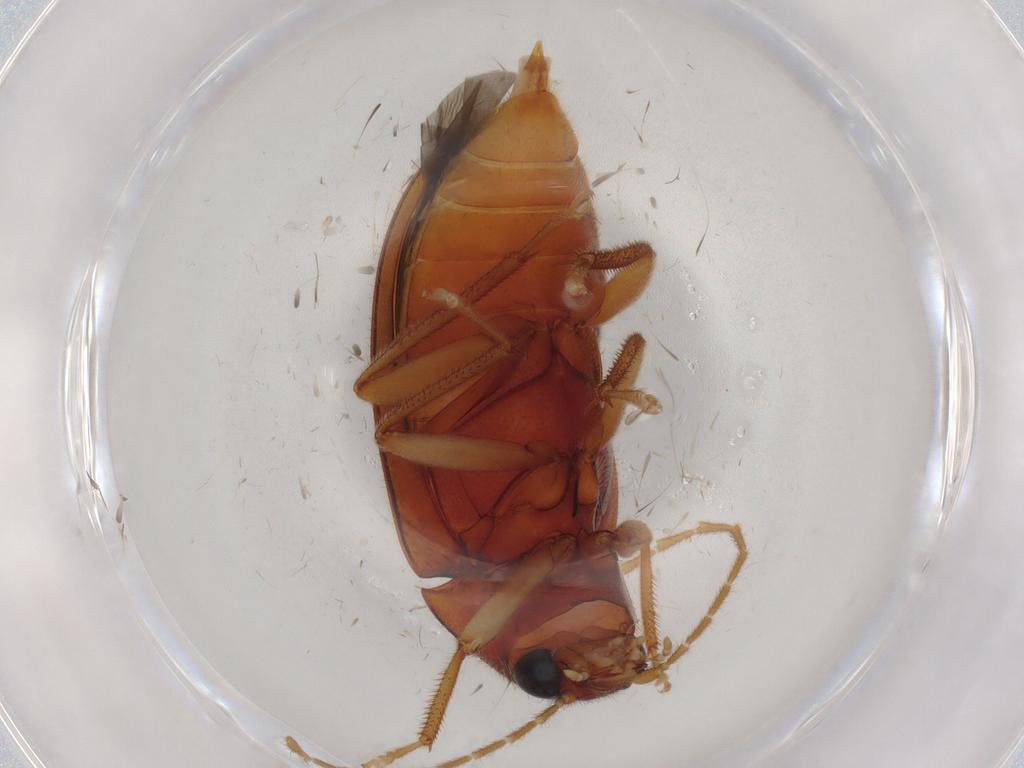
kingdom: Animalia
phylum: Arthropoda
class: Insecta
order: Coleoptera
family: Ptilodactylidae
